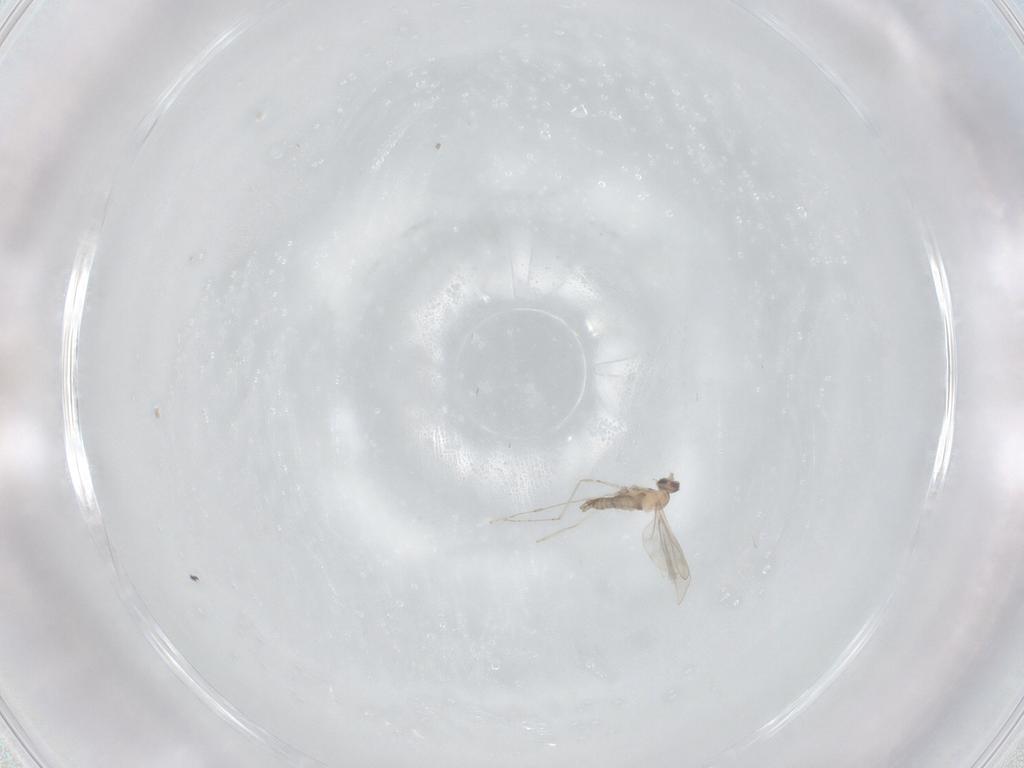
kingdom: Animalia
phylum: Arthropoda
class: Insecta
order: Diptera
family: Cecidomyiidae
